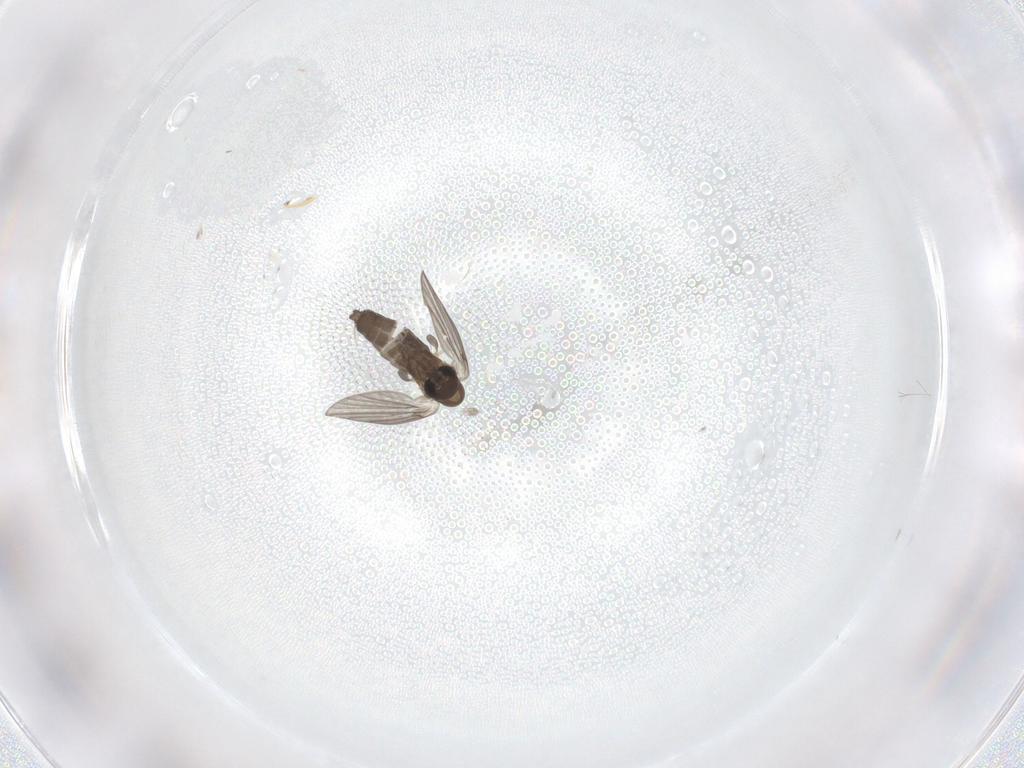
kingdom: Animalia
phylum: Arthropoda
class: Insecta
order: Diptera
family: Cecidomyiidae
